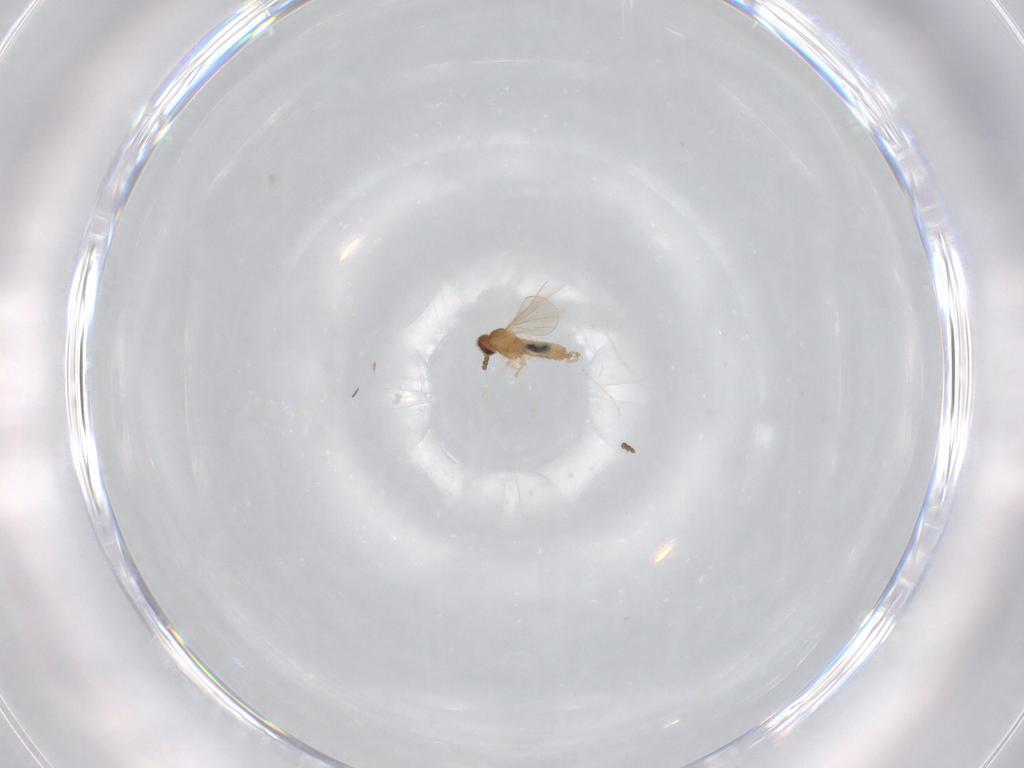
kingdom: Animalia
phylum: Arthropoda
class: Insecta
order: Diptera
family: Cecidomyiidae
